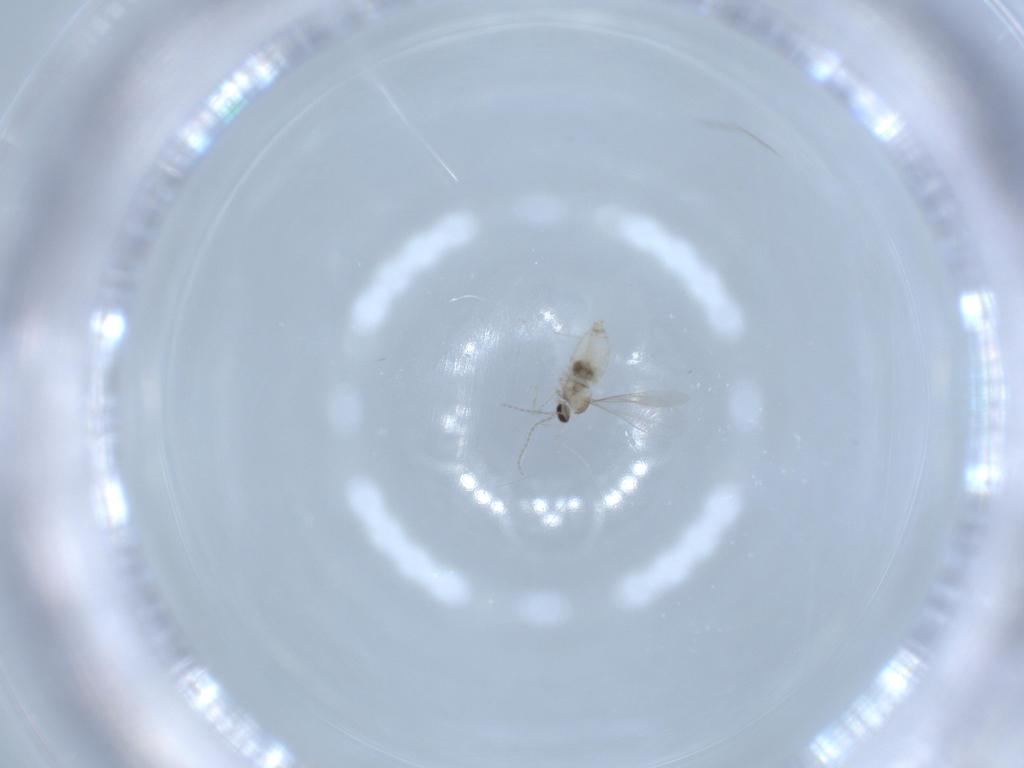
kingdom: Animalia
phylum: Arthropoda
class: Insecta
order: Diptera
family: Cecidomyiidae
